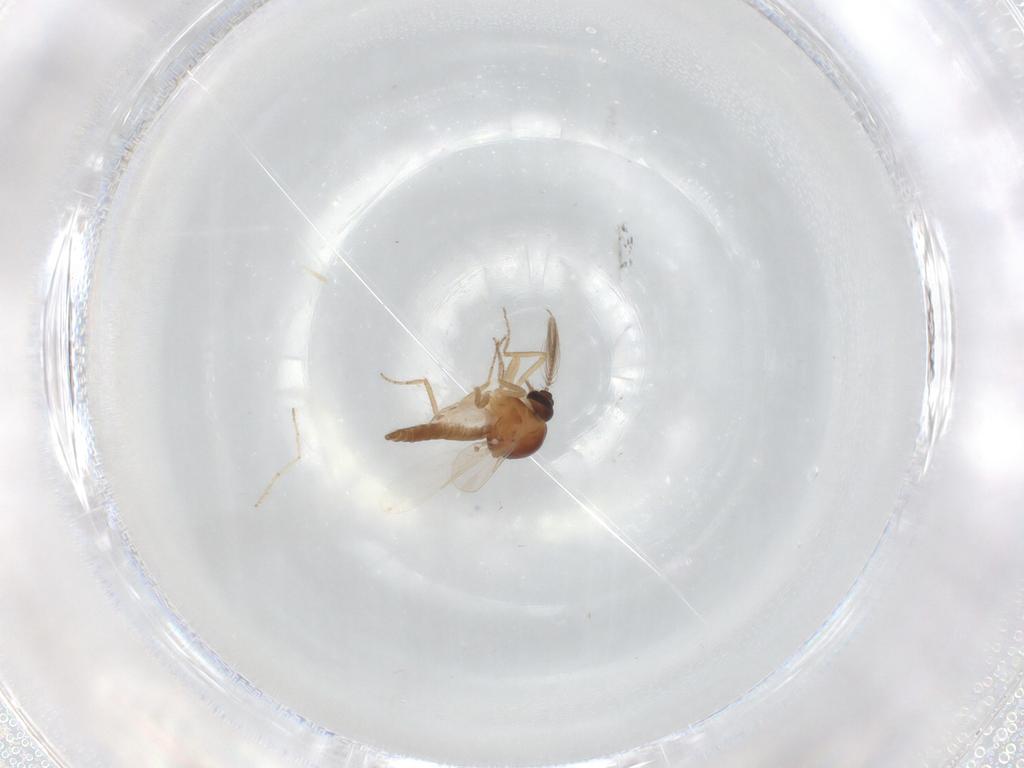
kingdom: Animalia
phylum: Arthropoda
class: Insecta
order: Diptera
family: Ceratopogonidae
